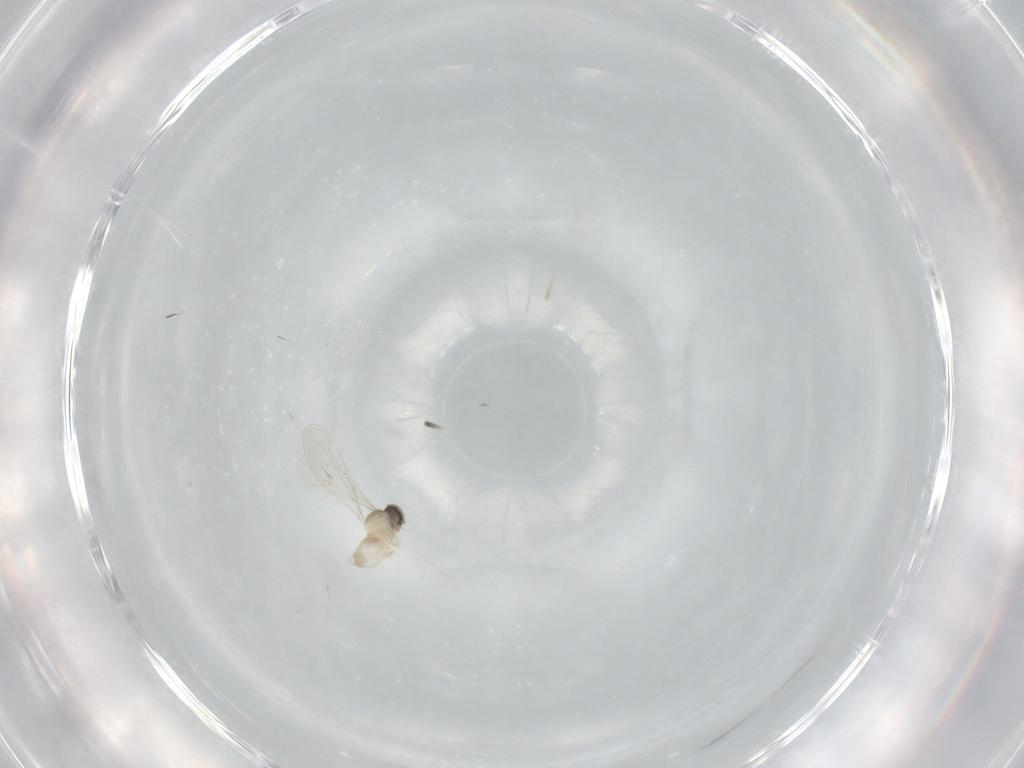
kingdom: Animalia
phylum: Arthropoda
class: Insecta
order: Diptera
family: Cecidomyiidae
